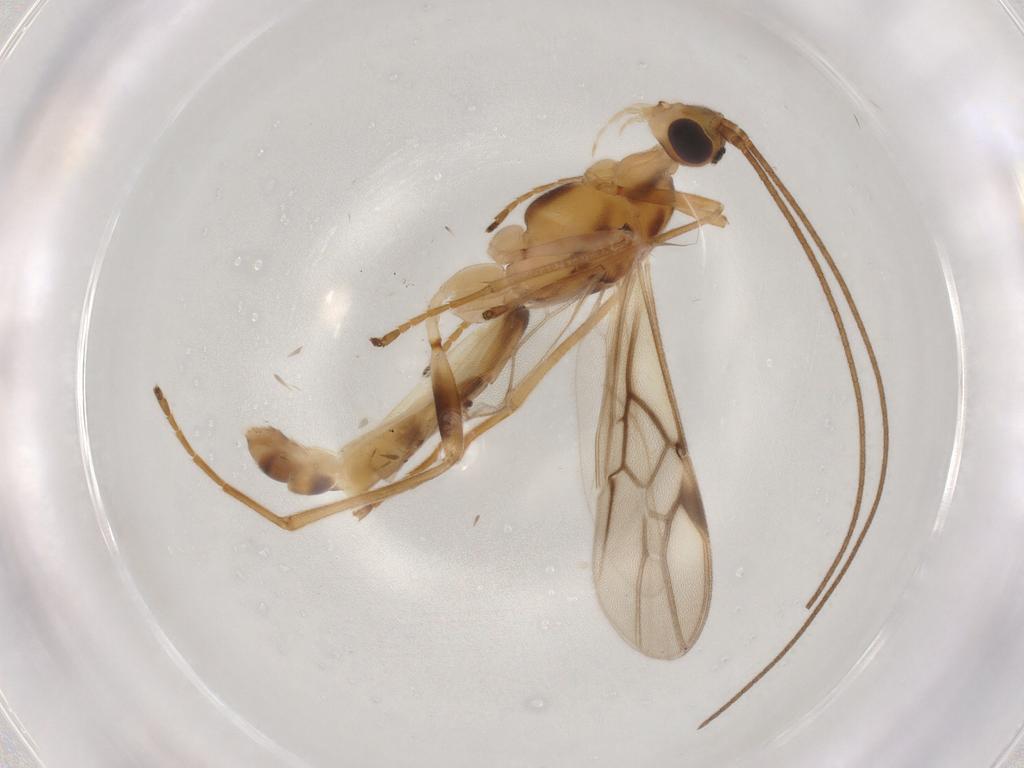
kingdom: Animalia
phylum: Arthropoda
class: Insecta
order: Hymenoptera
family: Braconidae
